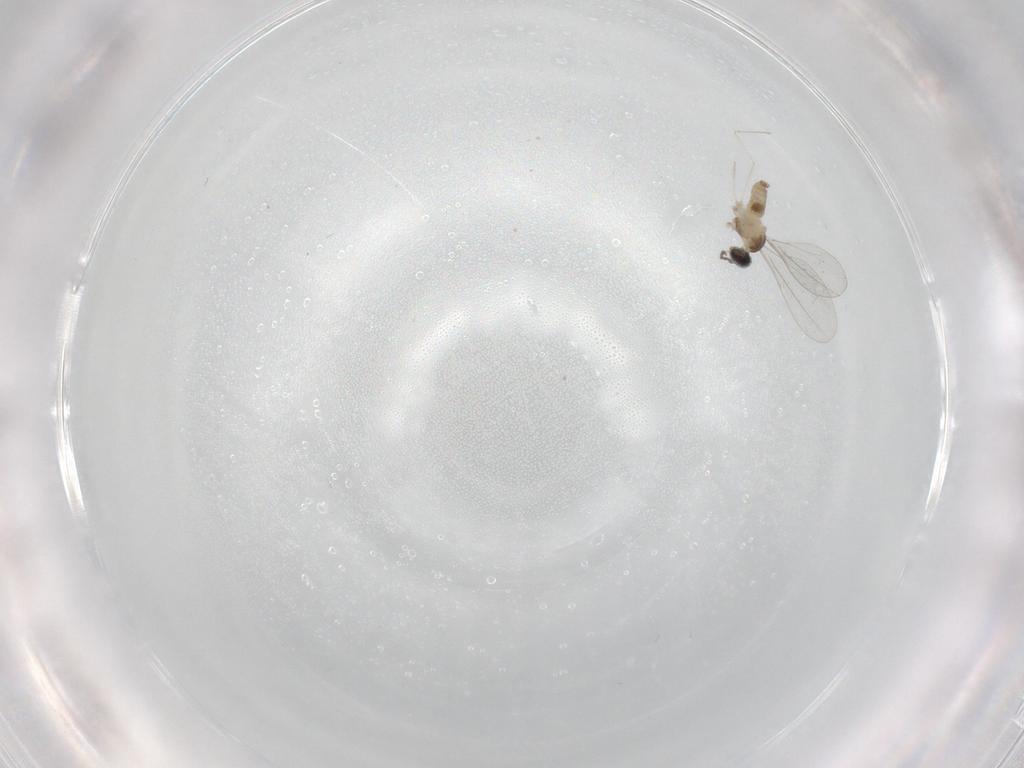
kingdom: Animalia
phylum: Arthropoda
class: Insecta
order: Diptera
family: Cecidomyiidae
